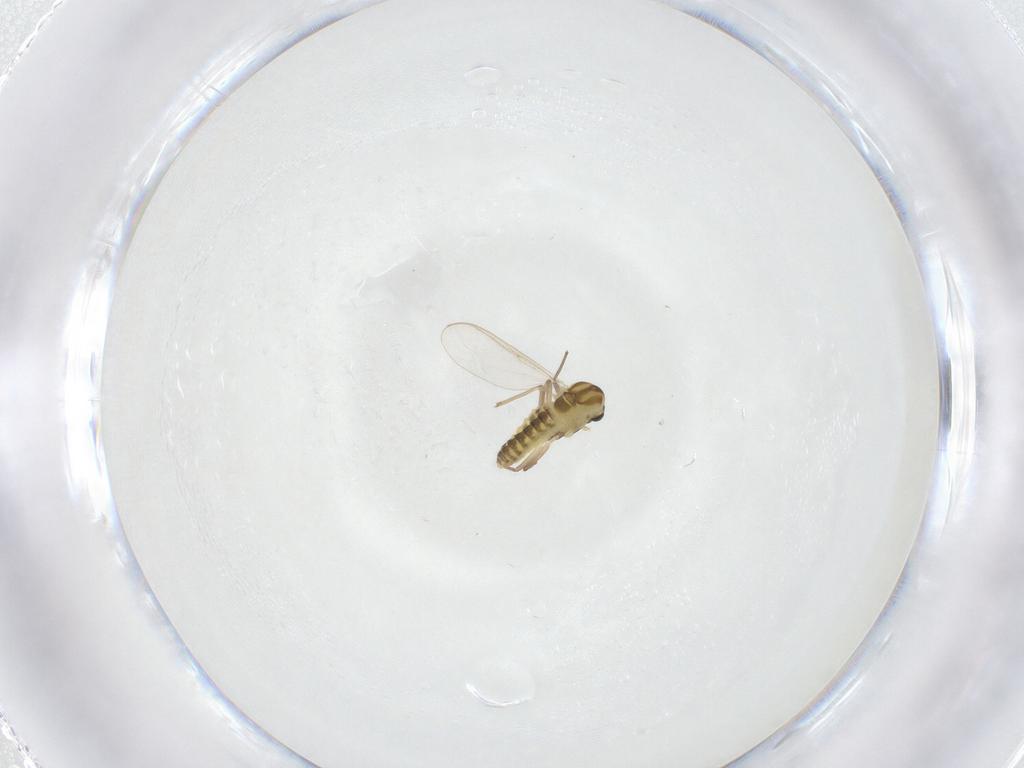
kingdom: Animalia
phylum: Arthropoda
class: Insecta
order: Diptera
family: Chironomidae
